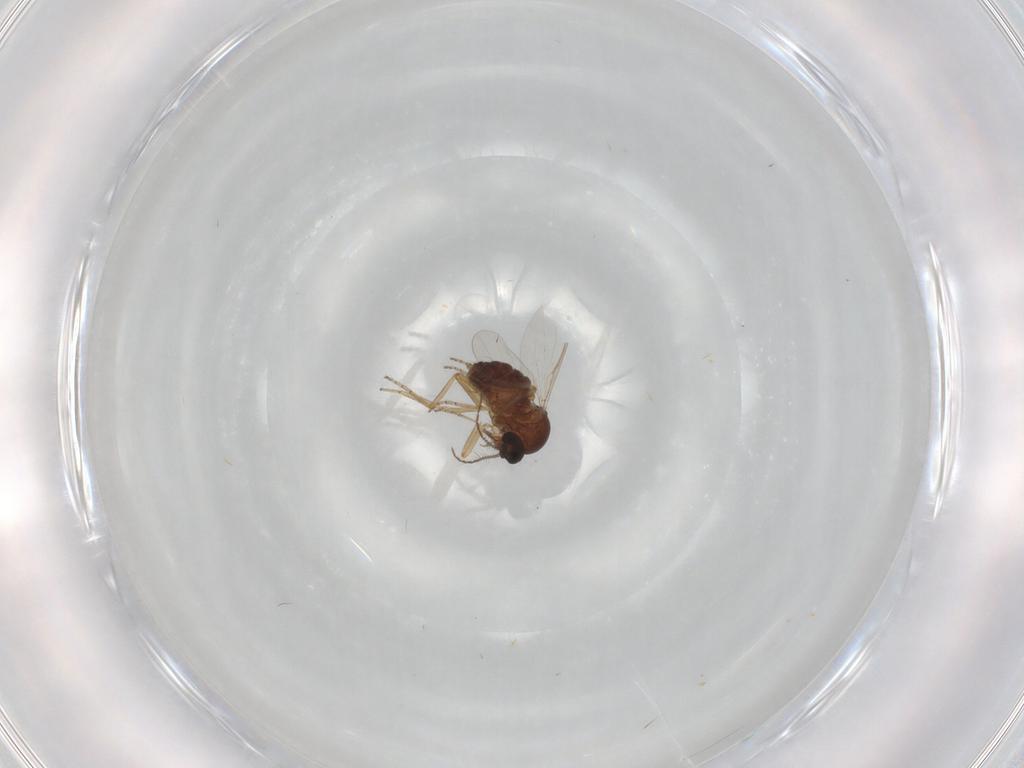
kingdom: Animalia
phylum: Arthropoda
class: Insecta
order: Diptera
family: Ceratopogonidae
